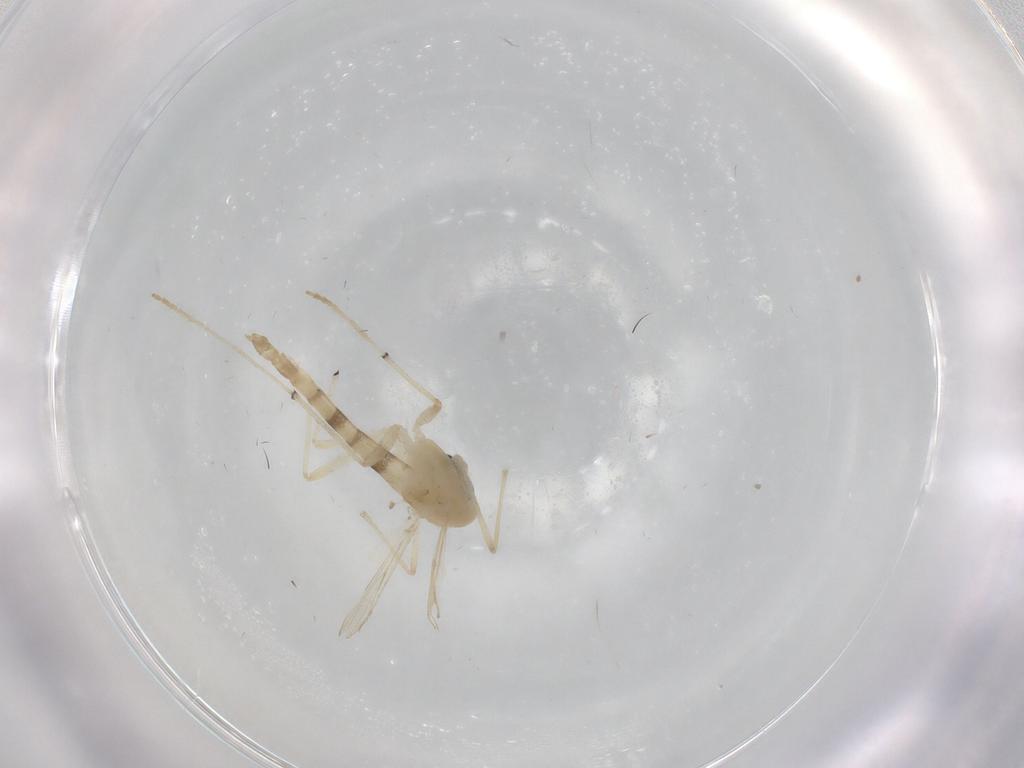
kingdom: Animalia
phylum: Arthropoda
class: Insecta
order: Diptera
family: Chironomidae
